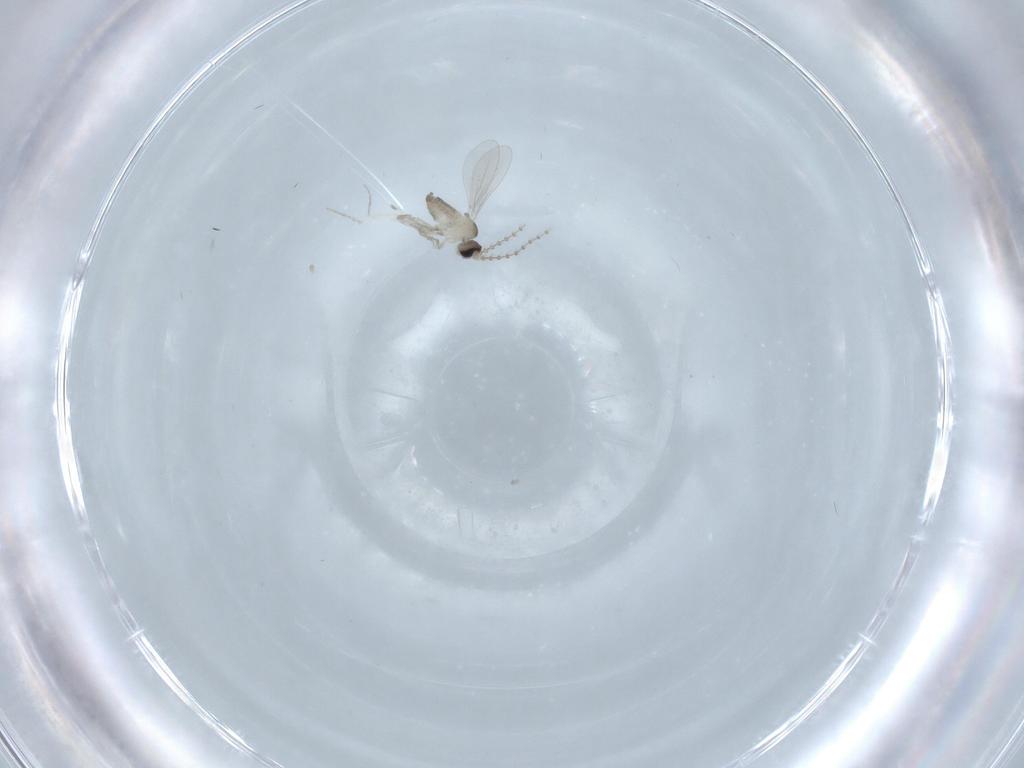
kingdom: Animalia
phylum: Arthropoda
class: Insecta
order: Diptera
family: Cecidomyiidae
